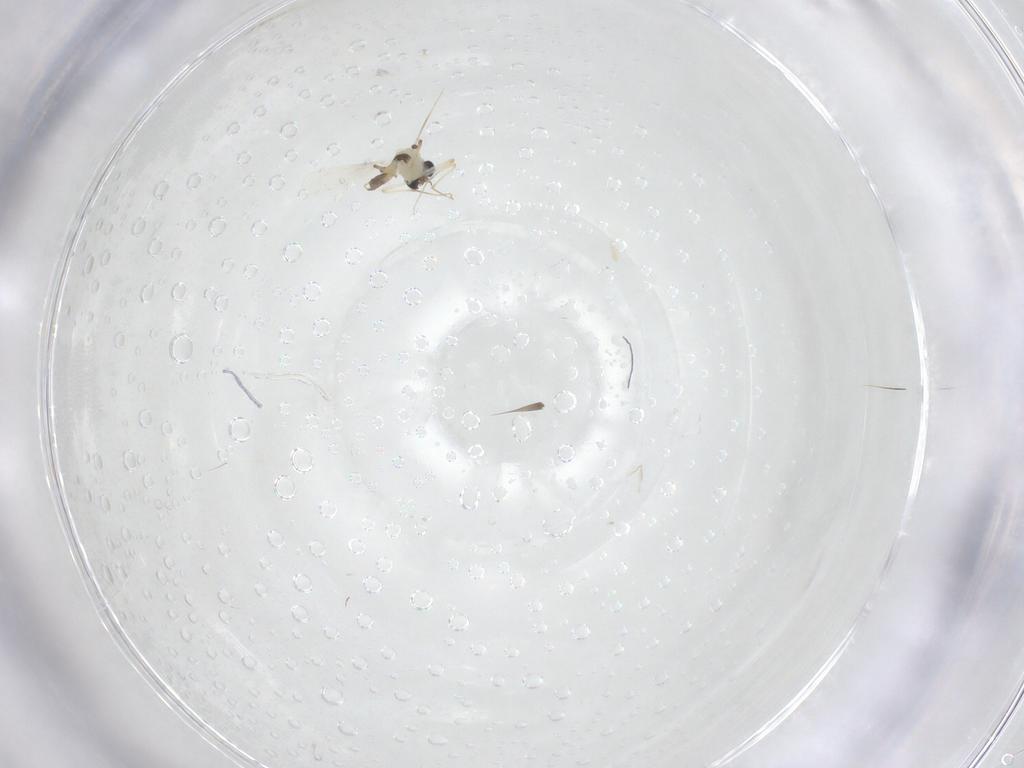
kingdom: Animalia
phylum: Arthropoda
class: Insecta
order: Diptera
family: Chironomidae
